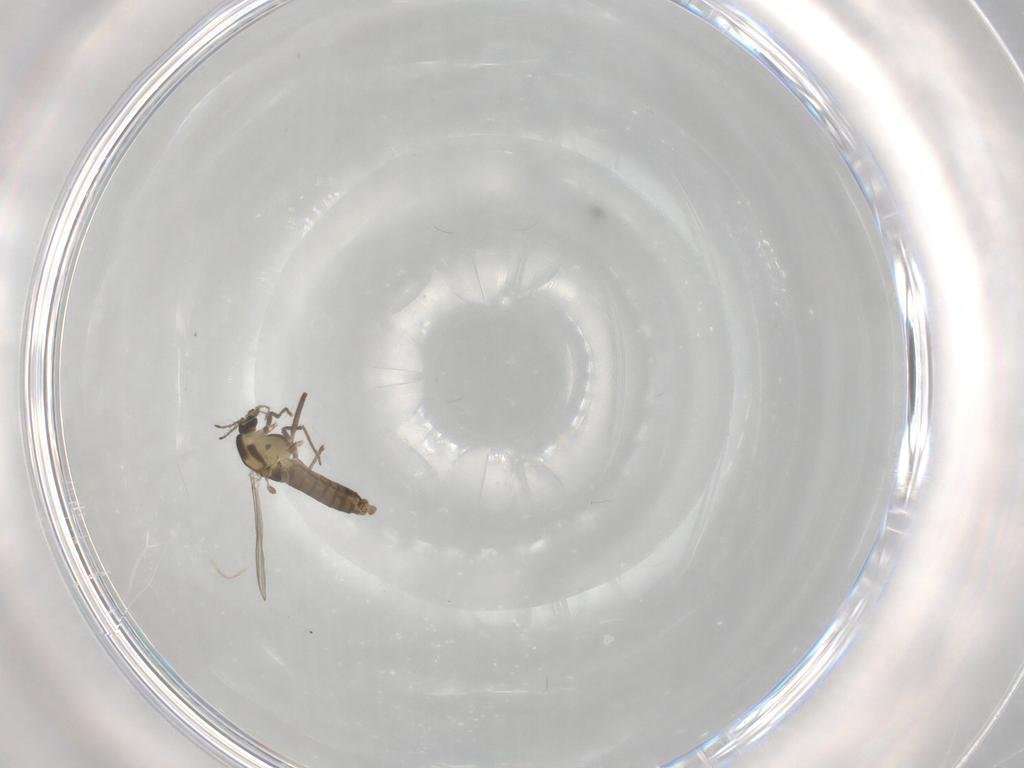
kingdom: Animalia
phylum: Arthropoda
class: Insecta
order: Diptera
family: Chironomidae
